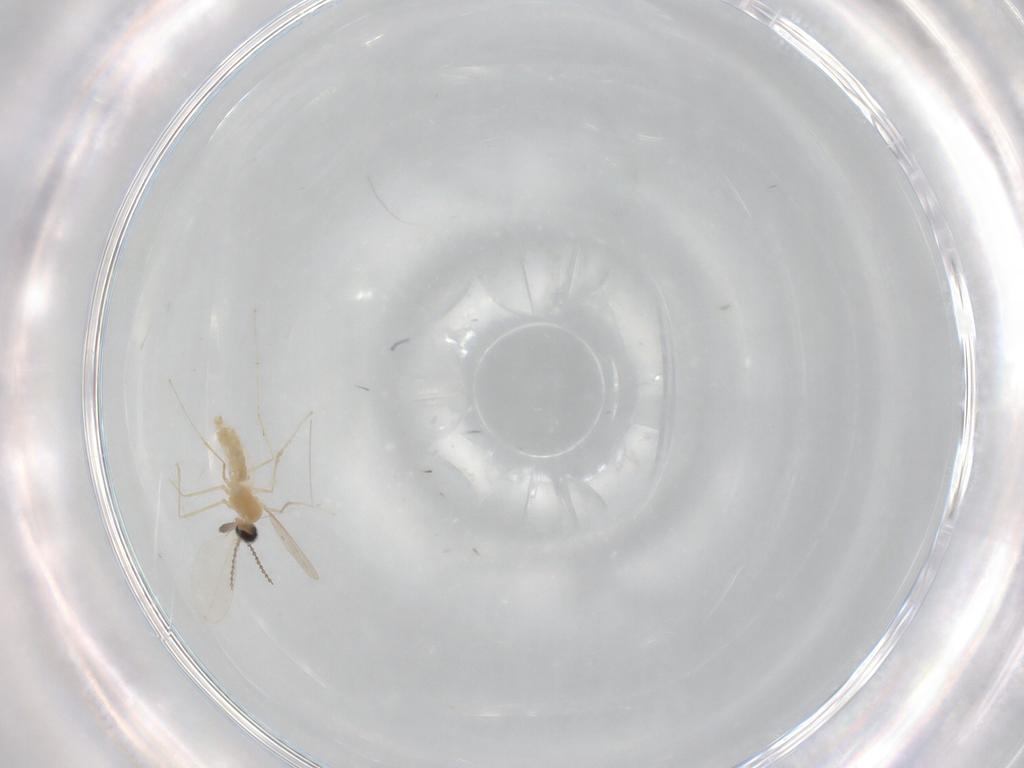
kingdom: Animalia
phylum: Arthropoda
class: Insecta
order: Diptera
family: Cecidomyiidae
